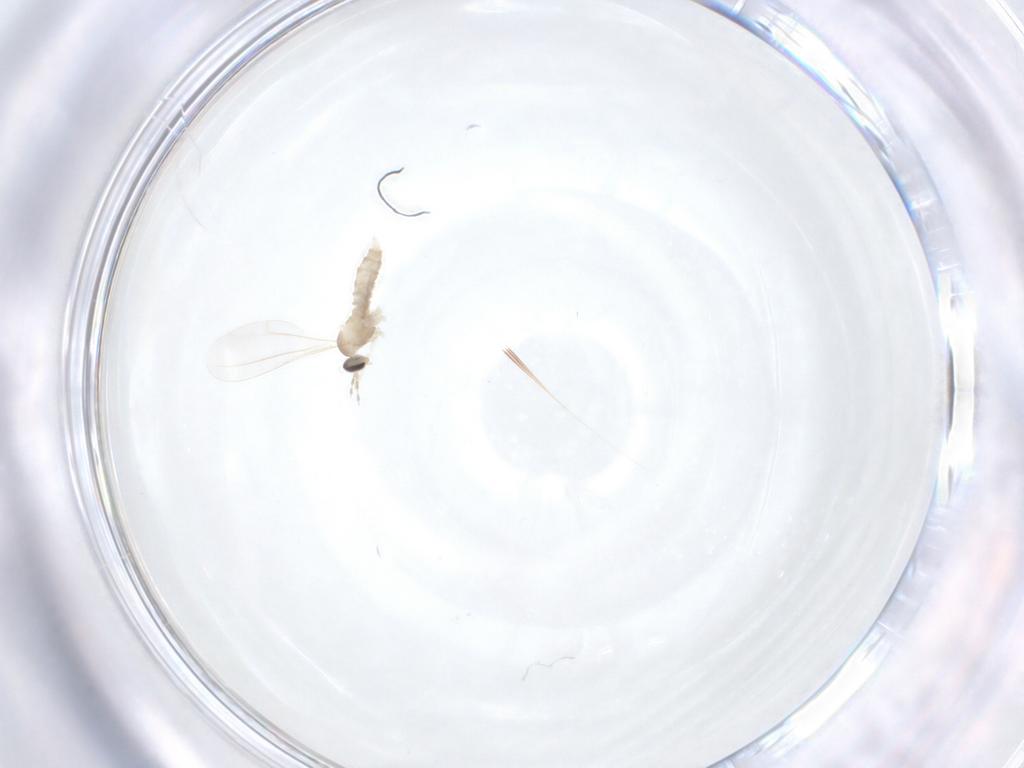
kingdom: Animalia
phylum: Arthropoda
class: Insecta
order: Diptera
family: Cecidomyiidae
